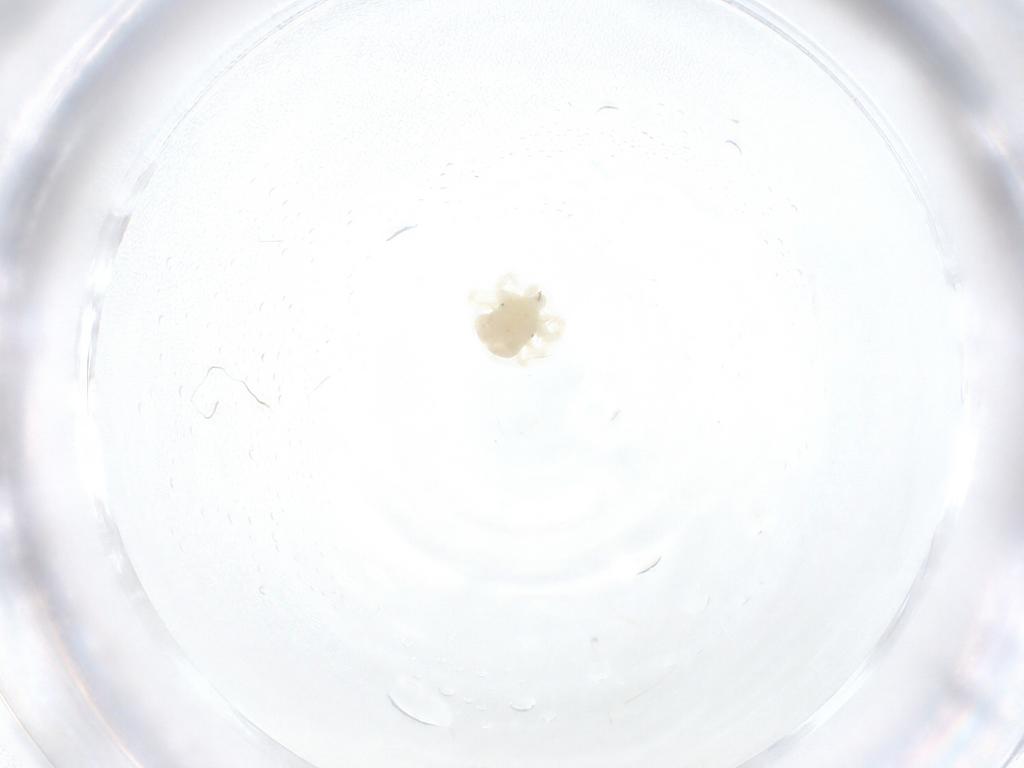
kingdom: Animalia
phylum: Arthropoda
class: Arachnida
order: Trombidiformes
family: Anystidae
